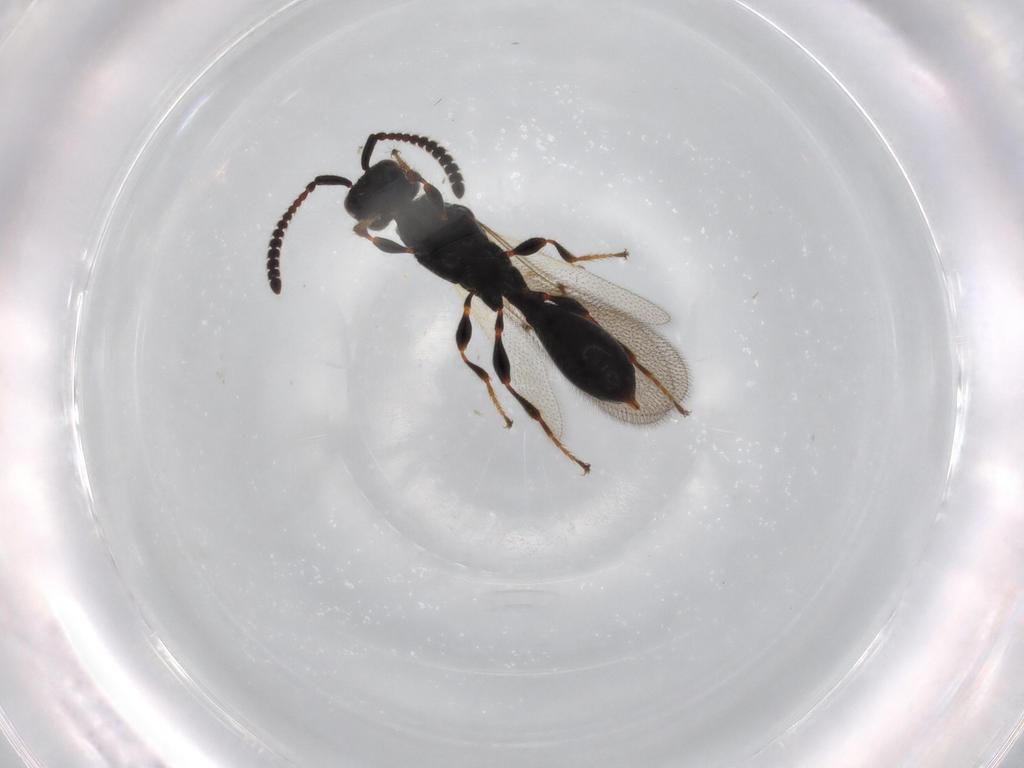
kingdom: Animalia
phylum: Arthropoda
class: Insecta
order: Hymenoptera
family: Diapriidae
